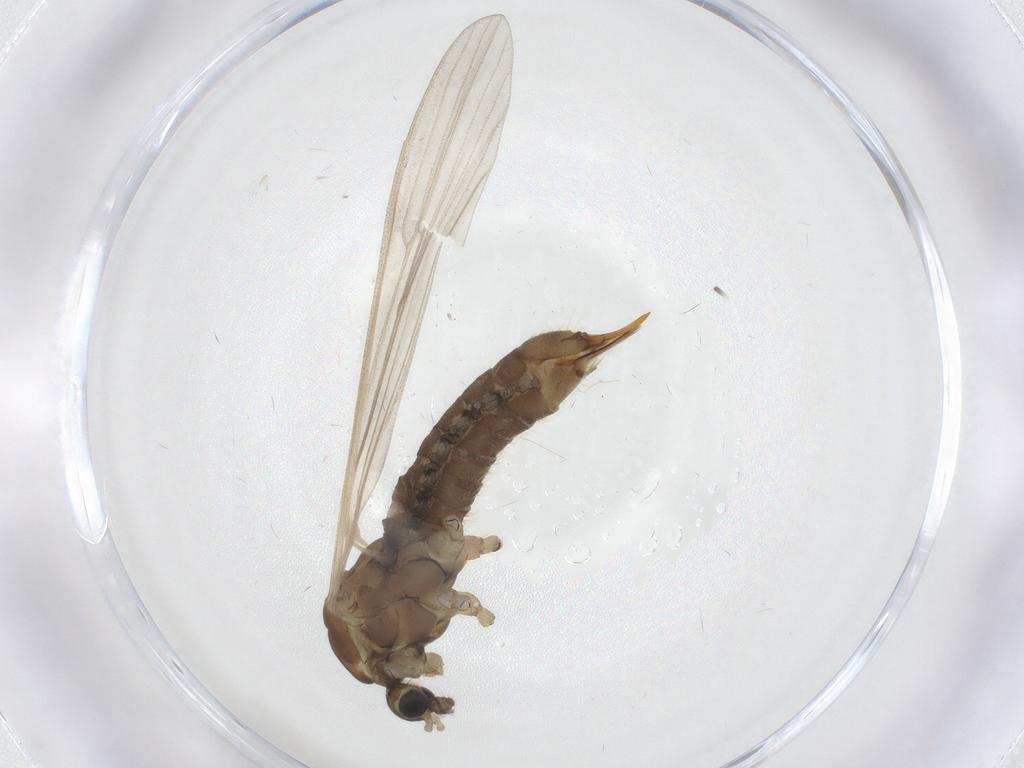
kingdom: Animalia
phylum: Arthropoda
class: Insecta
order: Diptera
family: Limoniidae
